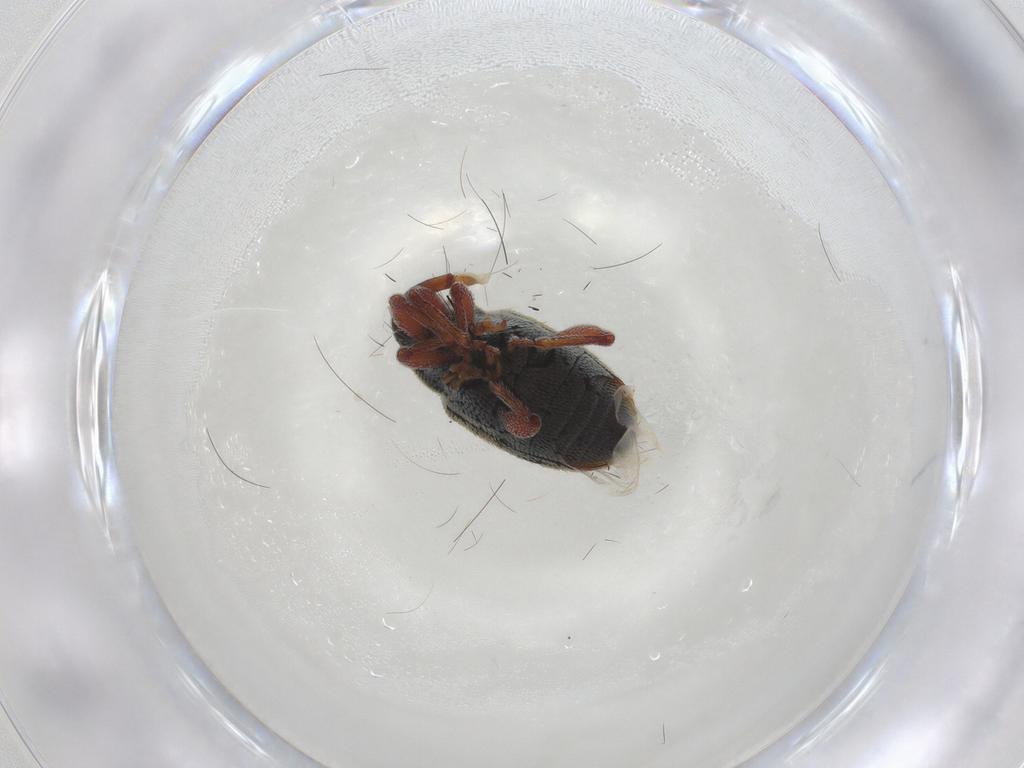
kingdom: Animalia
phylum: Arthropoda
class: Insecta
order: Coleoptera
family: Curculionidae
